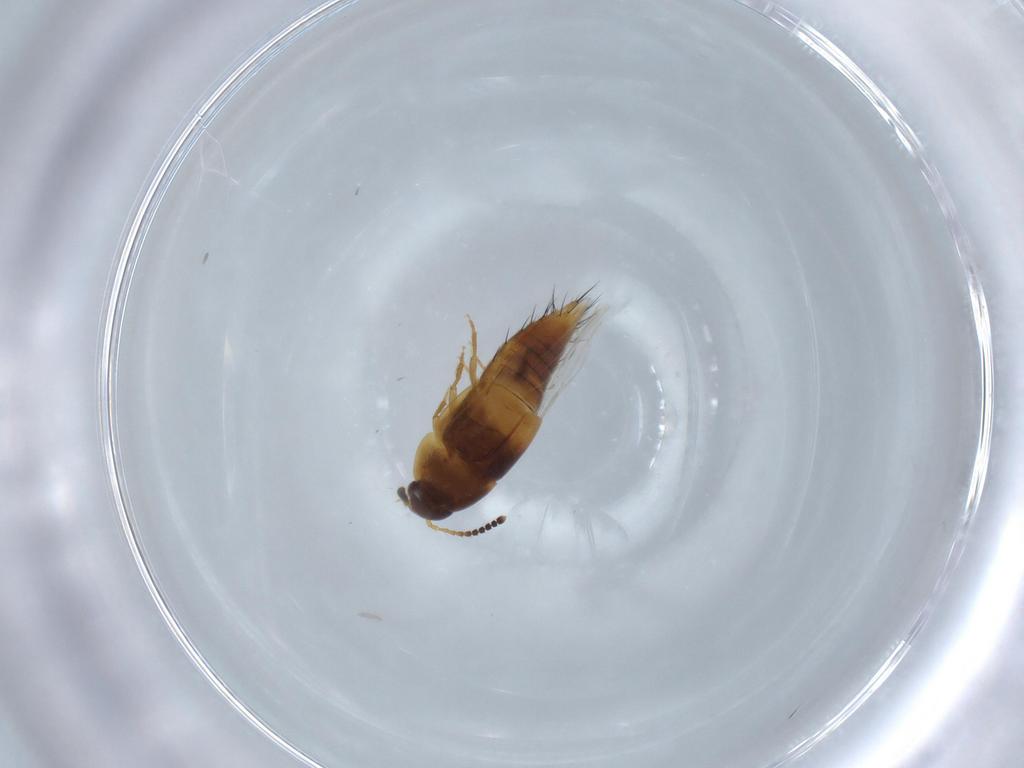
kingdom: Animalia
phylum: Arthropoda
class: Insecta
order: Coleoptera
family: Staphylinidae
